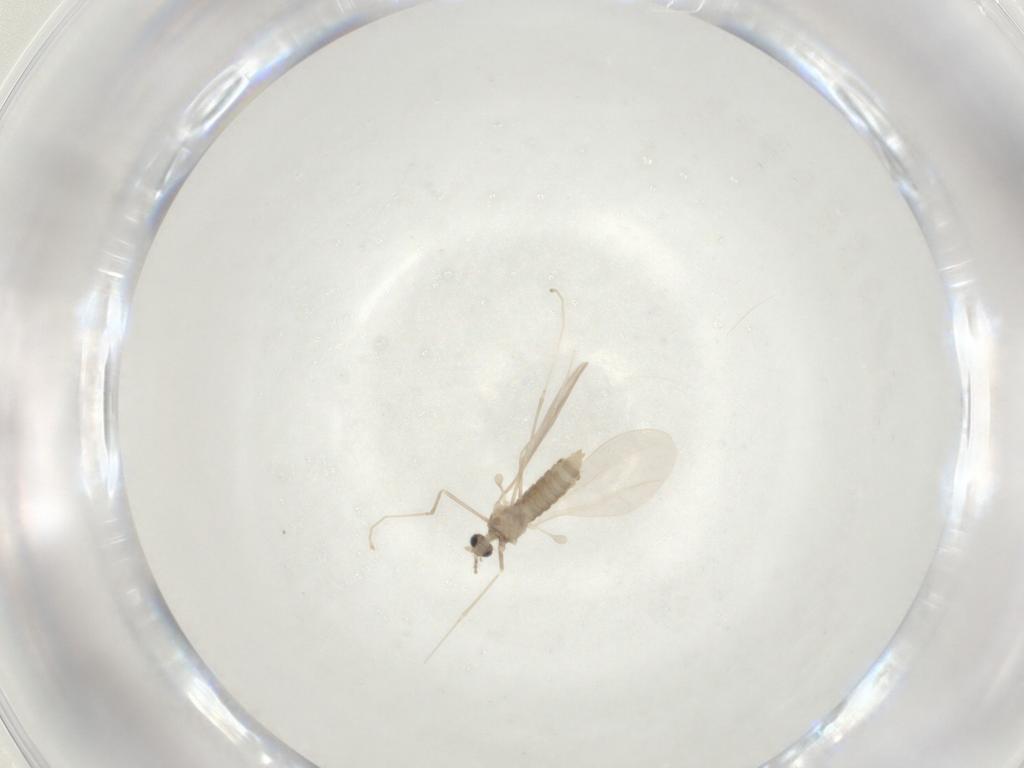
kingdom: Animalia
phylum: Arthropoda
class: Insecta
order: Diptera
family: Cecidomyiidae
